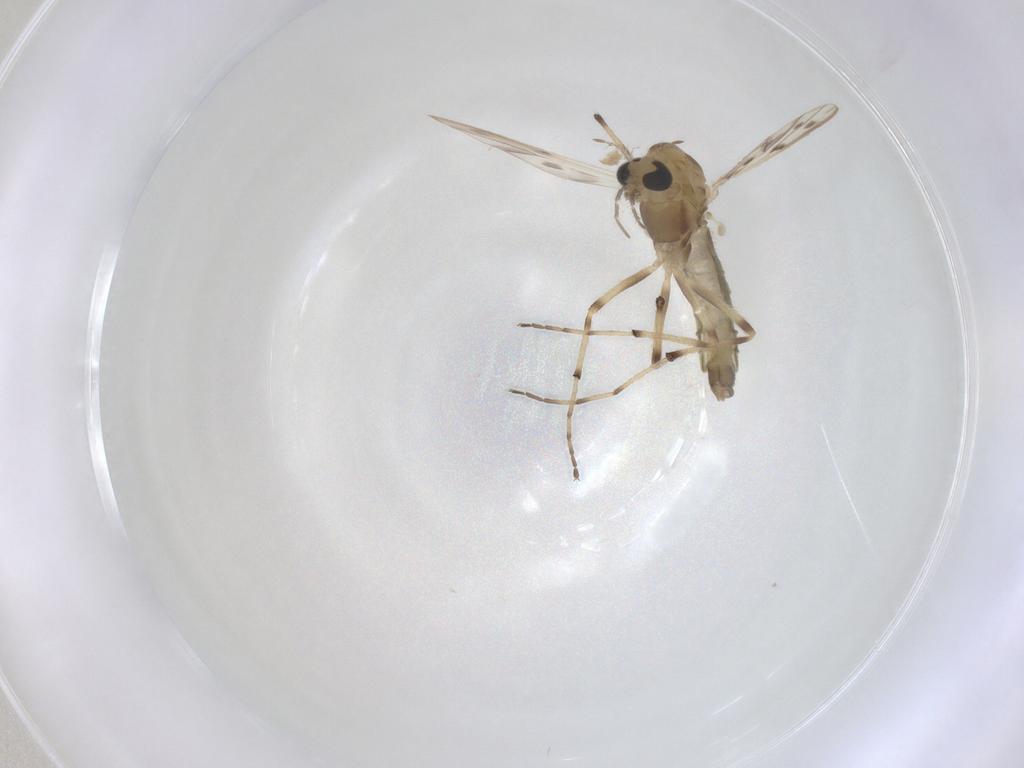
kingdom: Animalia
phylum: Arthropoda
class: Insecta
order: Diptera
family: Chironomidae
